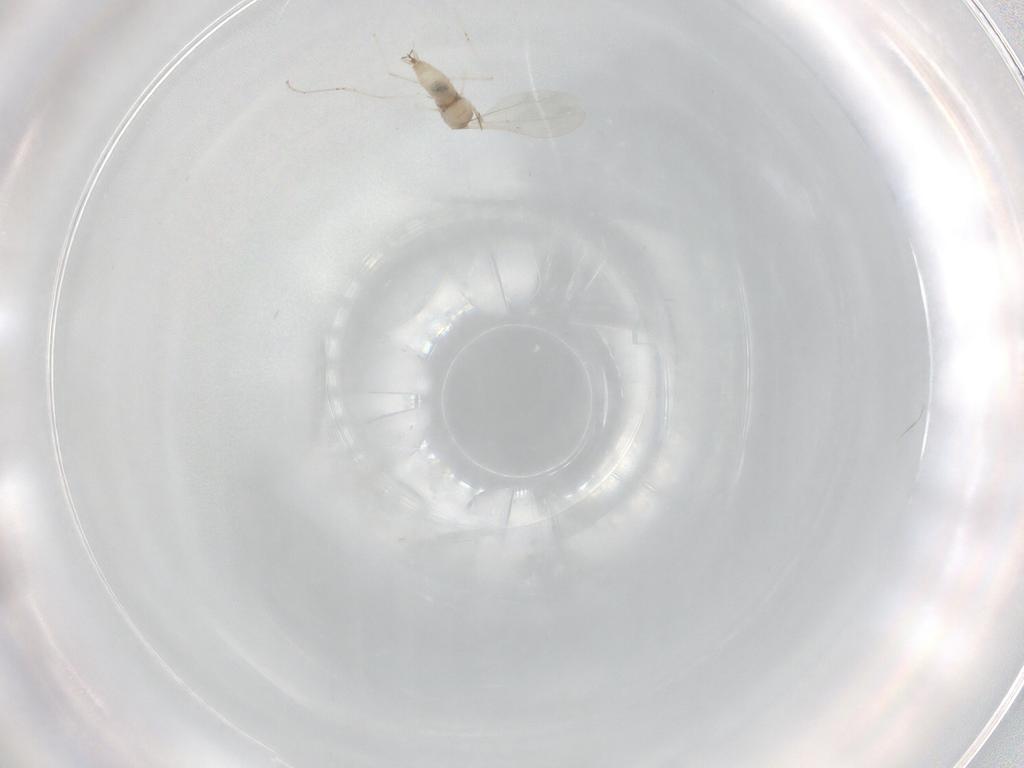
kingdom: Animalia
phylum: Arthropoda
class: Insecta
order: Diptera
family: Cecidomyiidae
